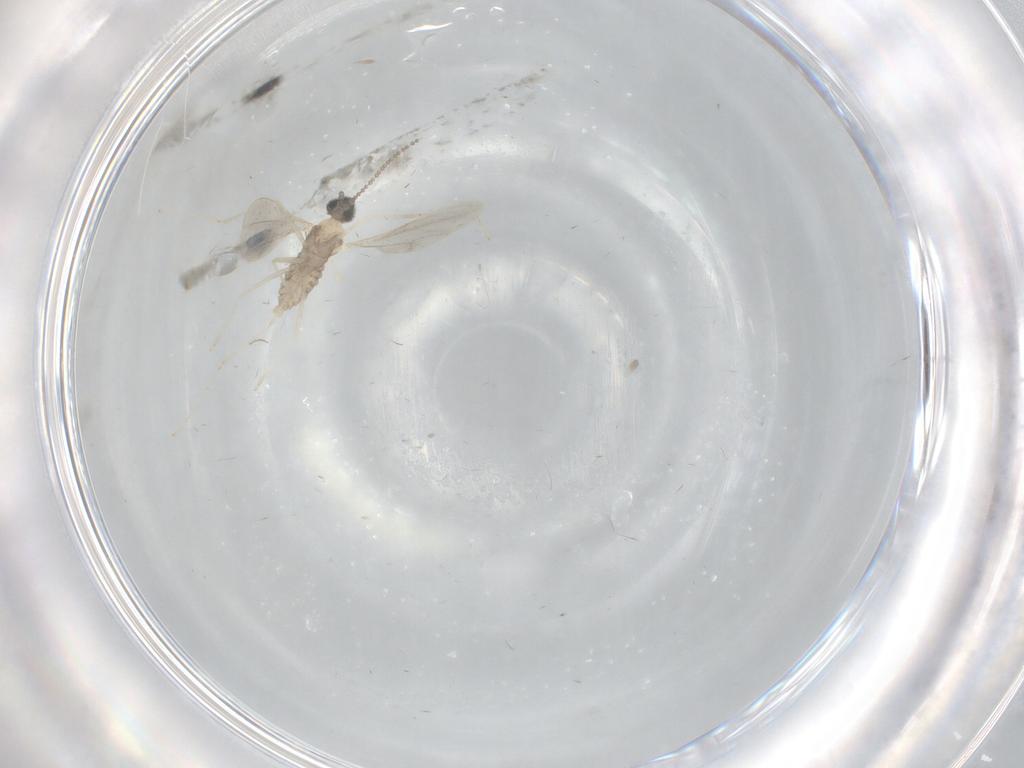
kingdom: Animalia
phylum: Arthropoda
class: Insecta
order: Diptera
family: Cecidomyiidae
